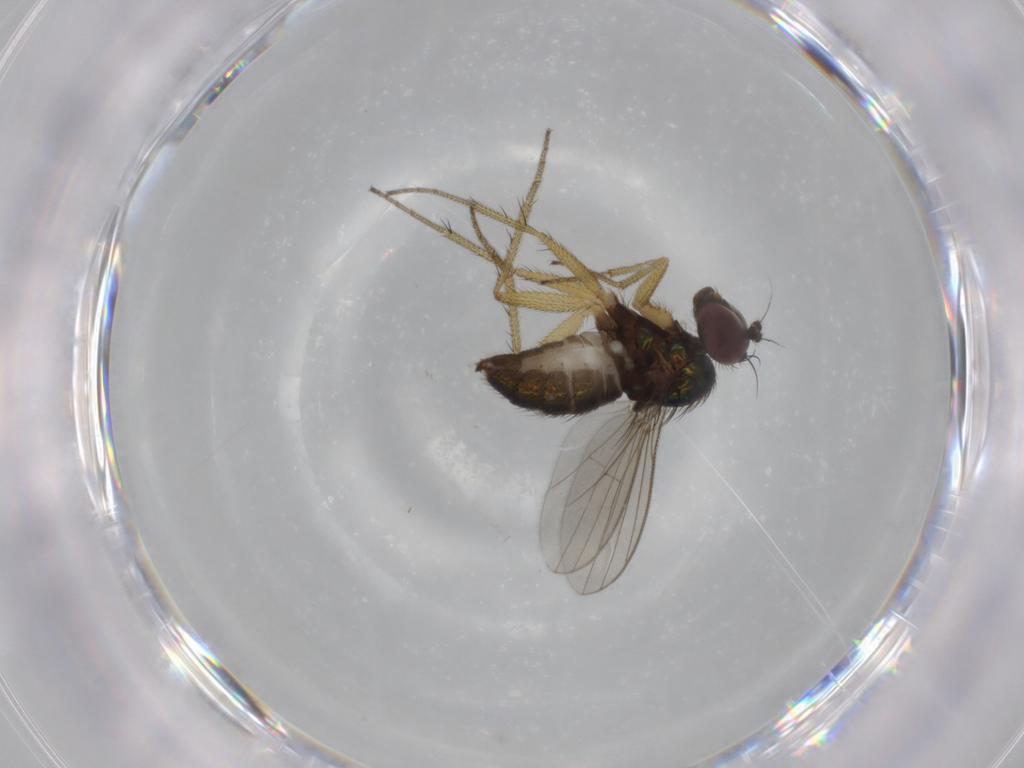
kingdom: Animalia
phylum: Arthropoda
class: Insecta
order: Diptera
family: Dolichopodidae
